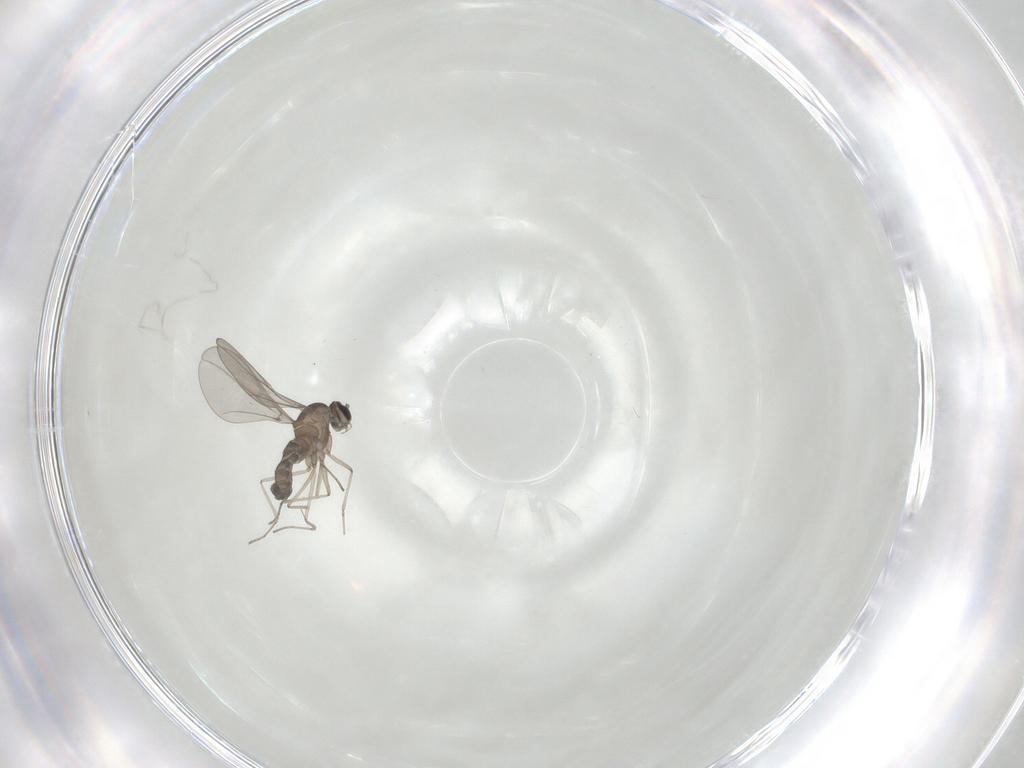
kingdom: Animalia
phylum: Arthropoda
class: Insecta
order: Diptera
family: Cecidomyiidae
